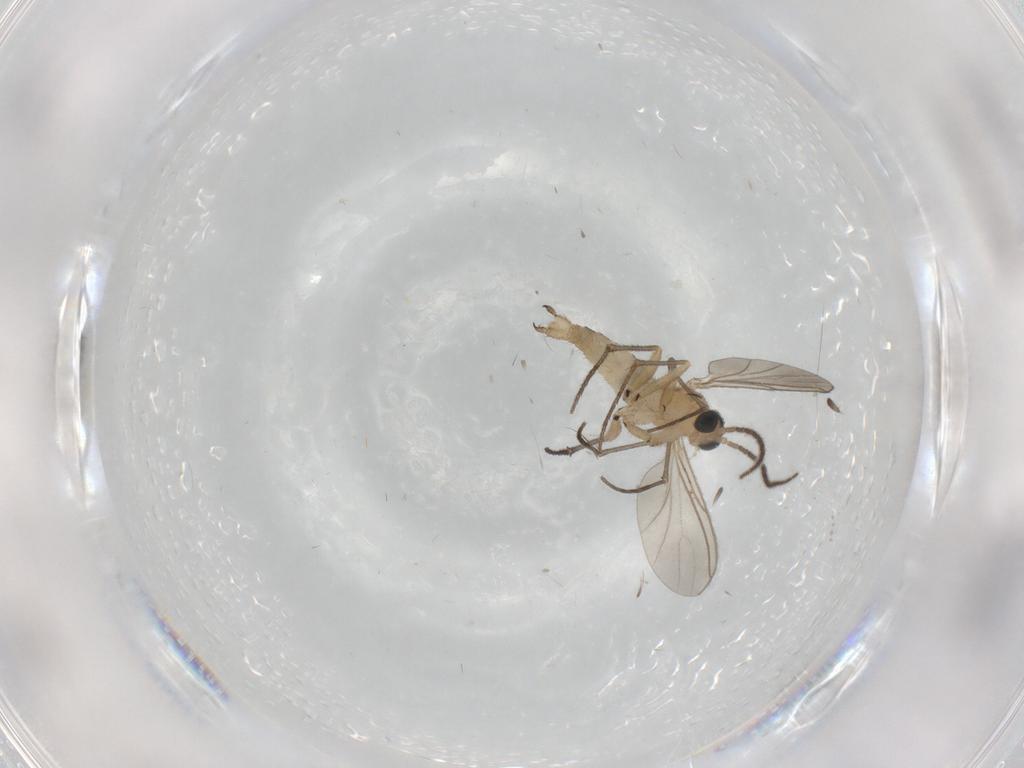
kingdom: Animalia
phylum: Arthropoda
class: Insecta
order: Diptera
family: Sciaridae
